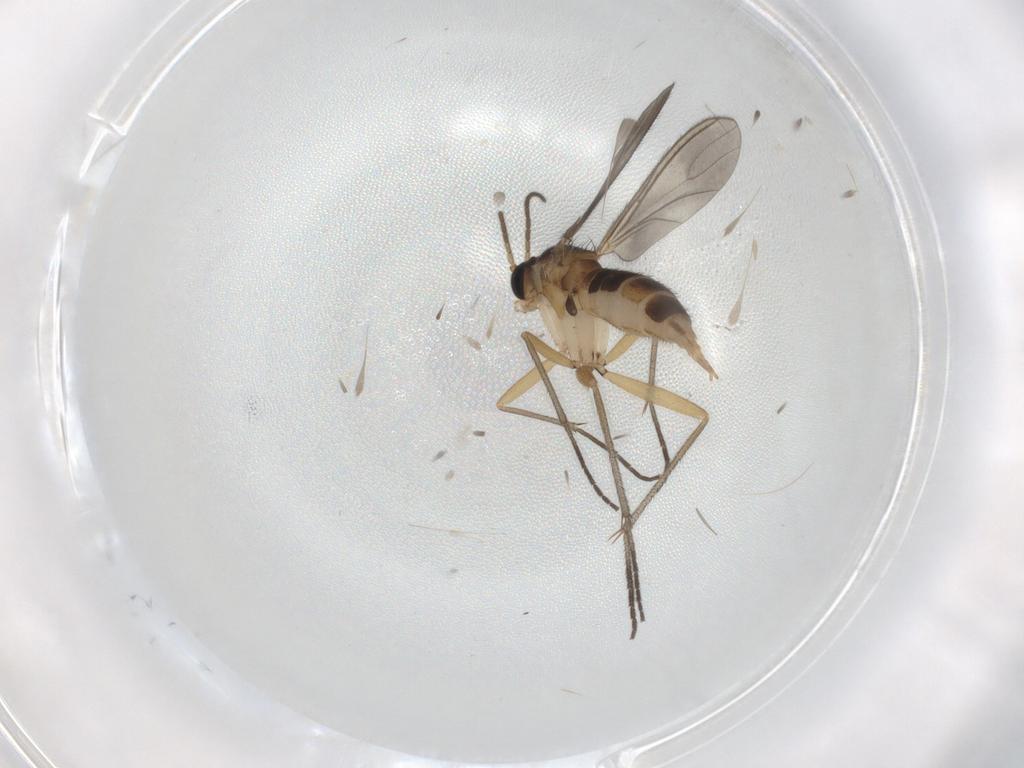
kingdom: Animalia
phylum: Arthropoda
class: Insecta
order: Diptera
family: Sciaridae
